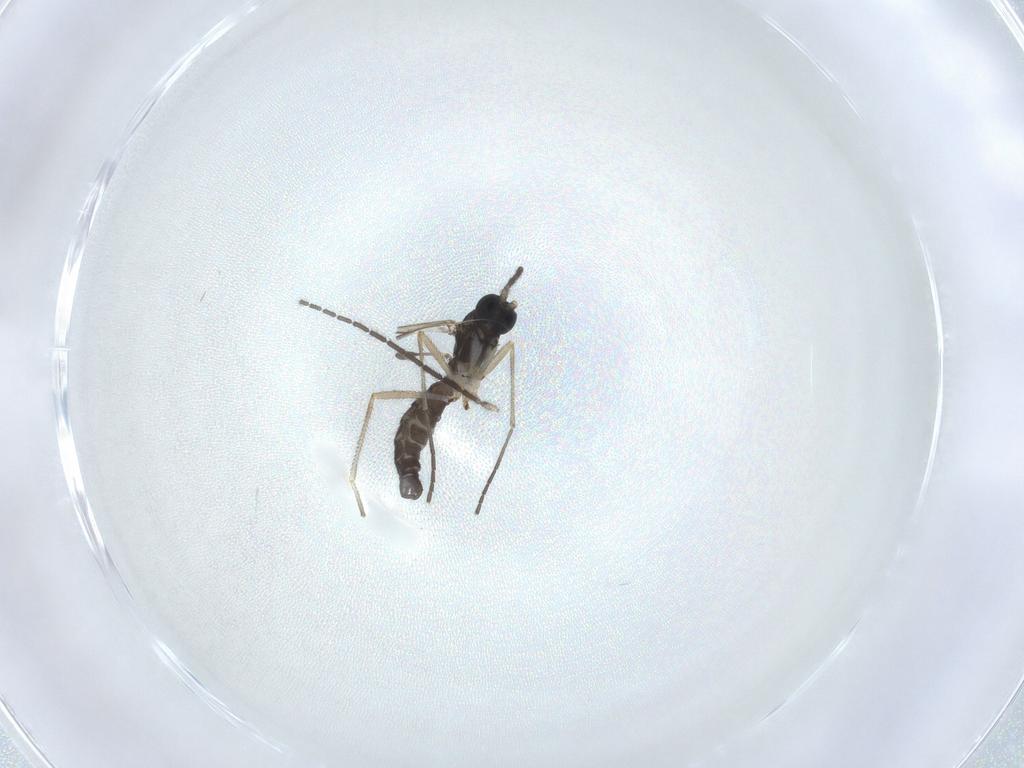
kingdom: Animalia
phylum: Arthropoda
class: Insecta
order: Diptera
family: Sciaridae
